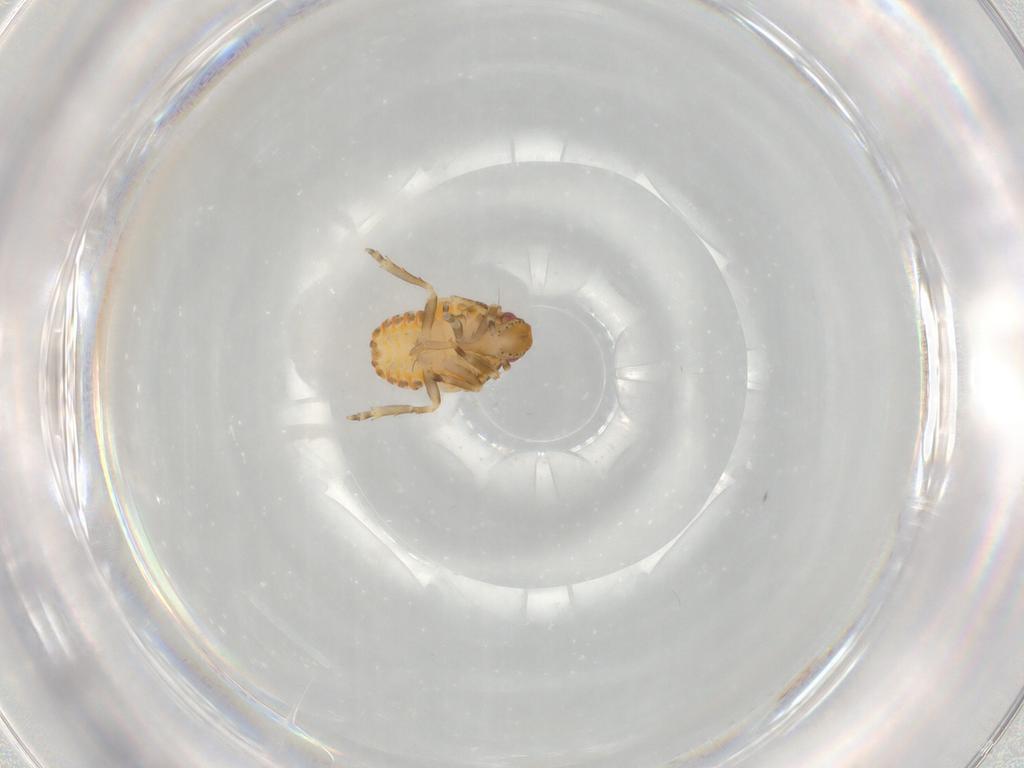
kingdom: Animalia
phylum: Arthropoda
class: Insecta
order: Hemiptera
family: Flatidae
